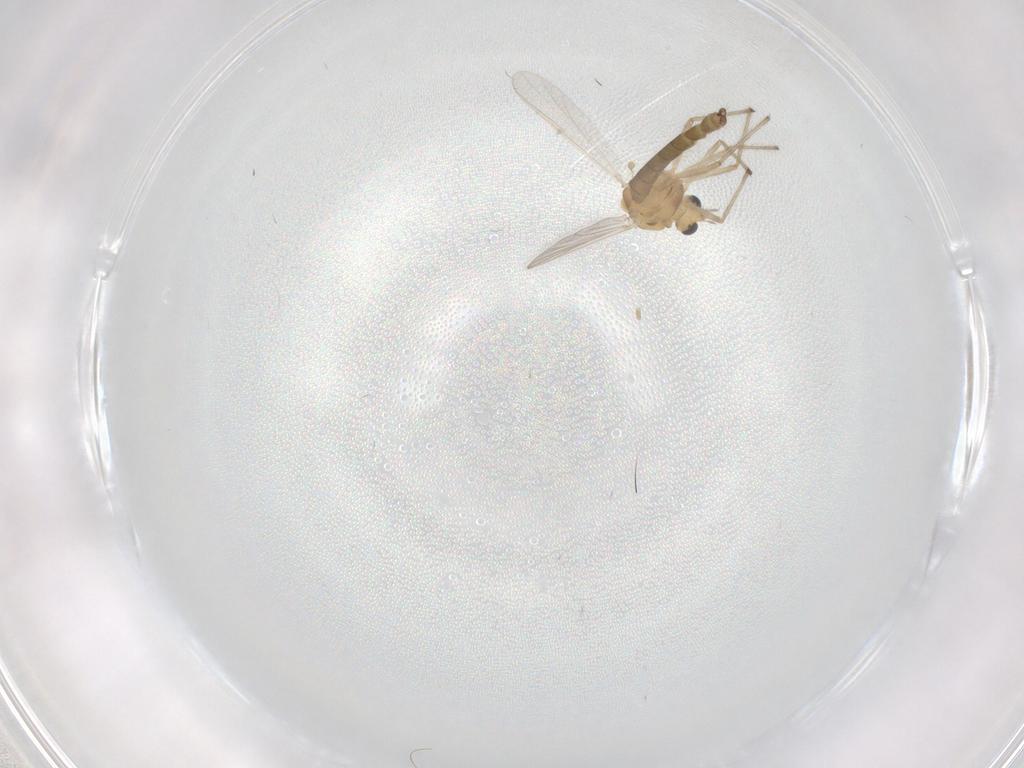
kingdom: Animalia
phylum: Arthropoda
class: Insecta
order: Diptera
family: Chironomidae
